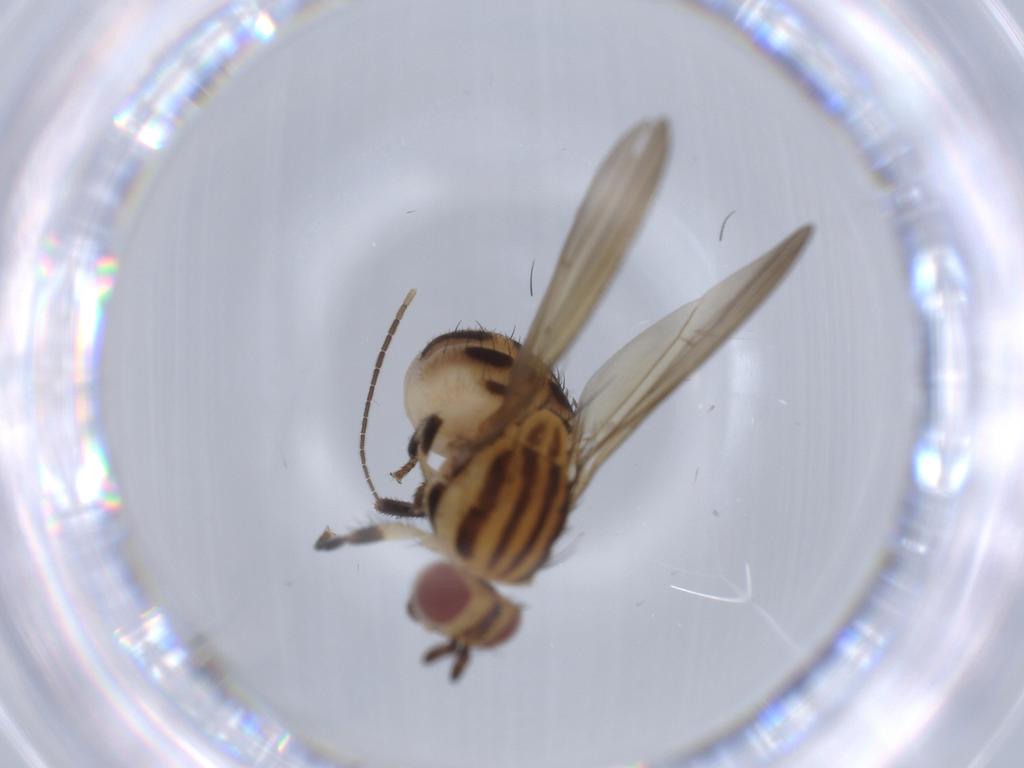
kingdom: Animalia
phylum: Arthropoda
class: Insecta
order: Diptera
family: Lauxaniidae
